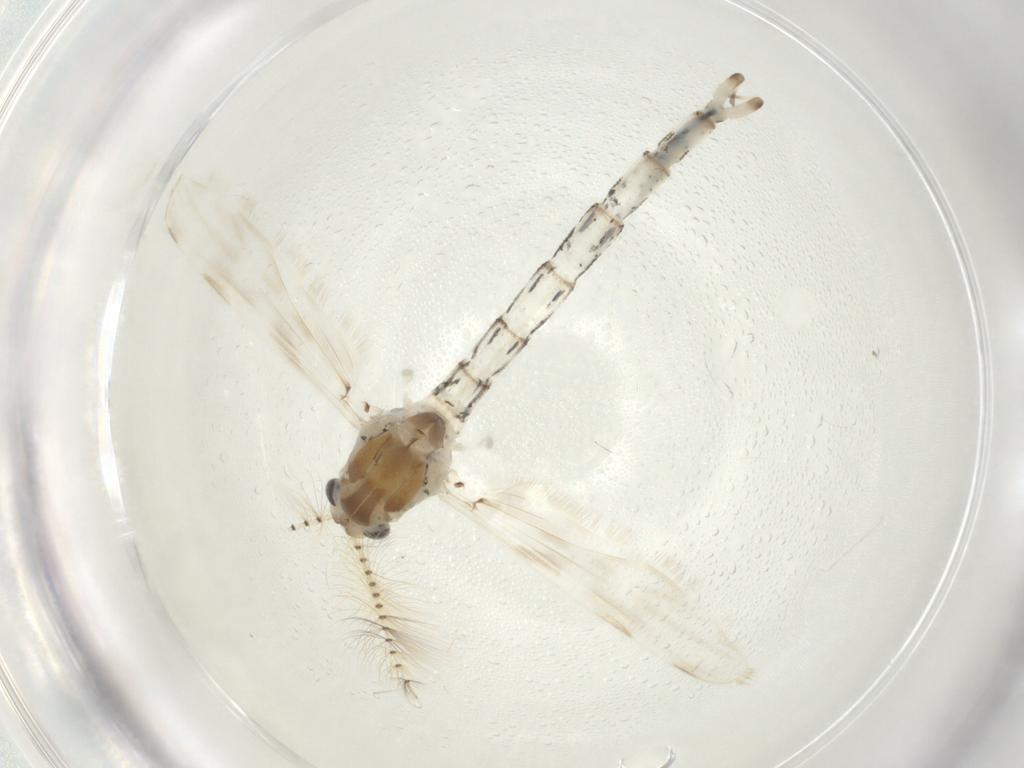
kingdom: Animalia
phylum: Arthropoda
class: Insecta
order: Diptera
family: Chaoboridae
